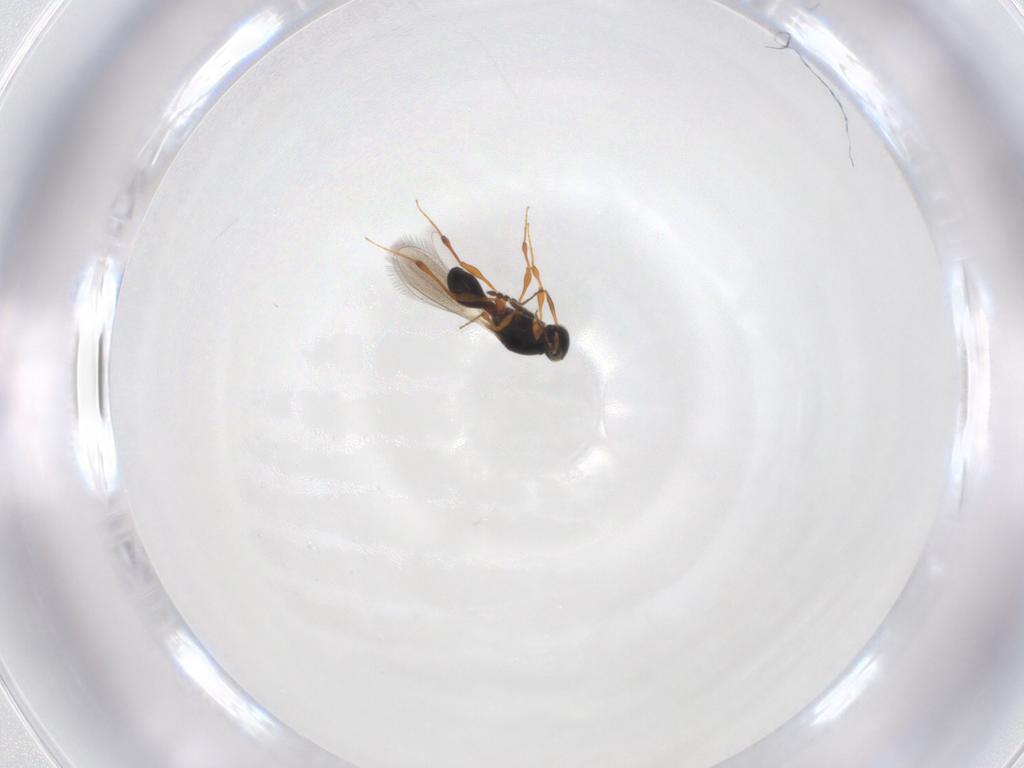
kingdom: Animalia
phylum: Arthropoda
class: Insecta
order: Hymenoptera
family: Platygastridae
